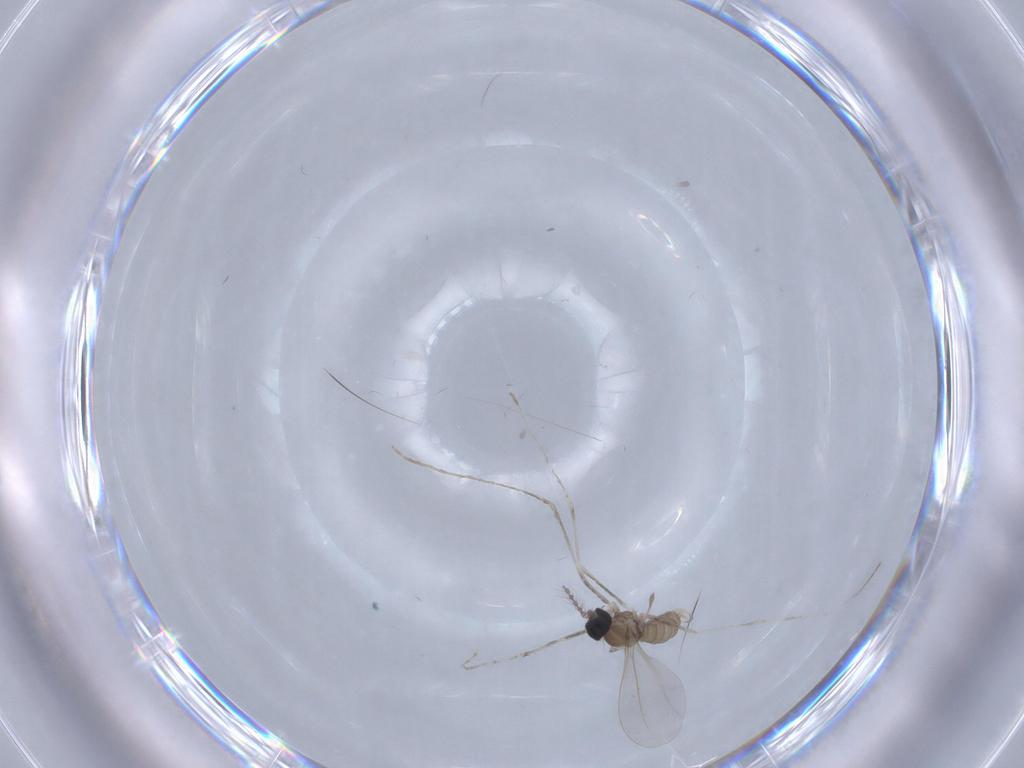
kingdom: Animalia
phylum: Arthropoda
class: Insecta
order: Diptera
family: Cecidomyiidae
